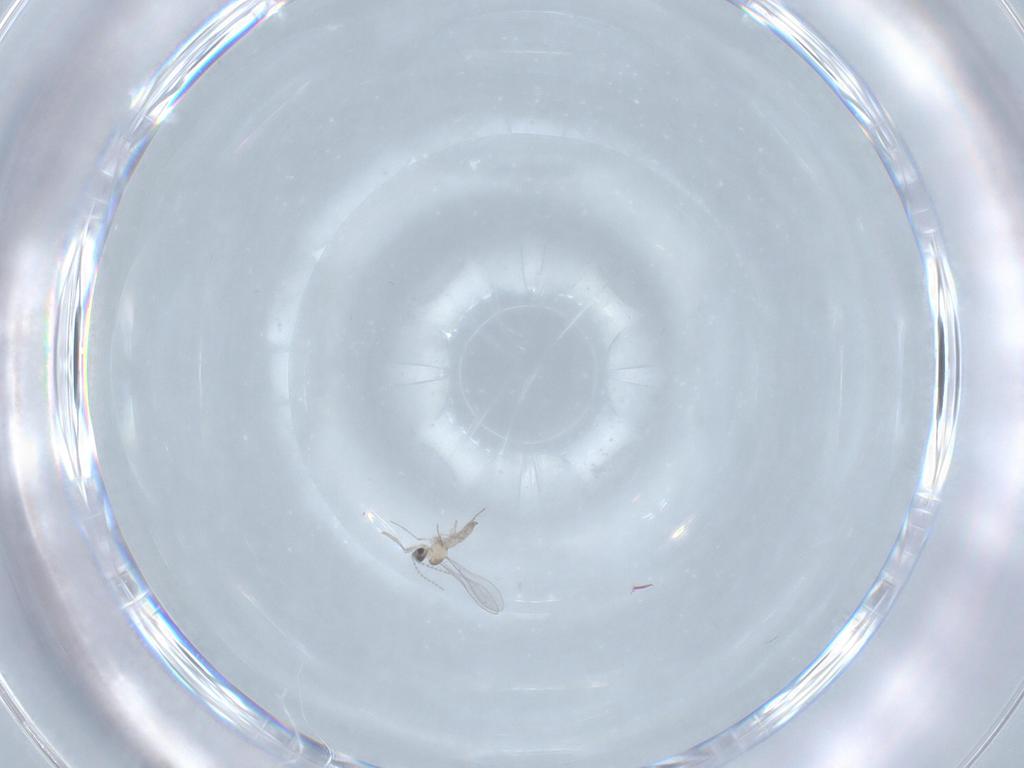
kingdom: Animalia
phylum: Arthropoda
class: Insecta
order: Diptera
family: Cecidomyiidae
